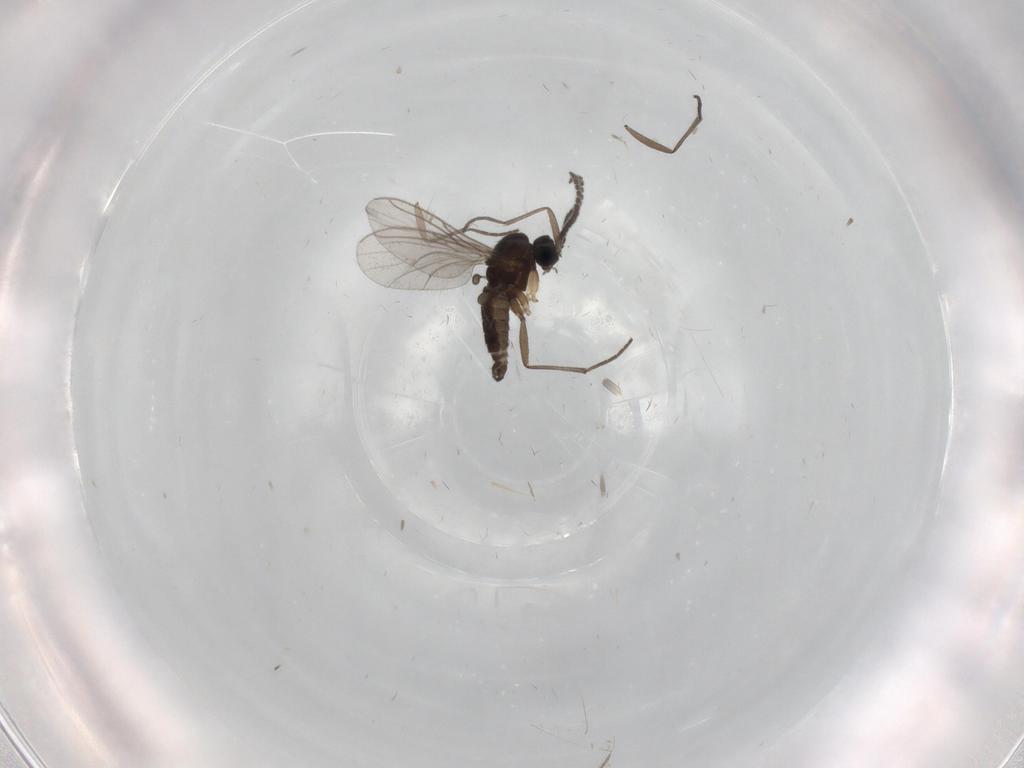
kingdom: Animalia
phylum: Arthropoda
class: Insecta
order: Diptera
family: Sciaridae
